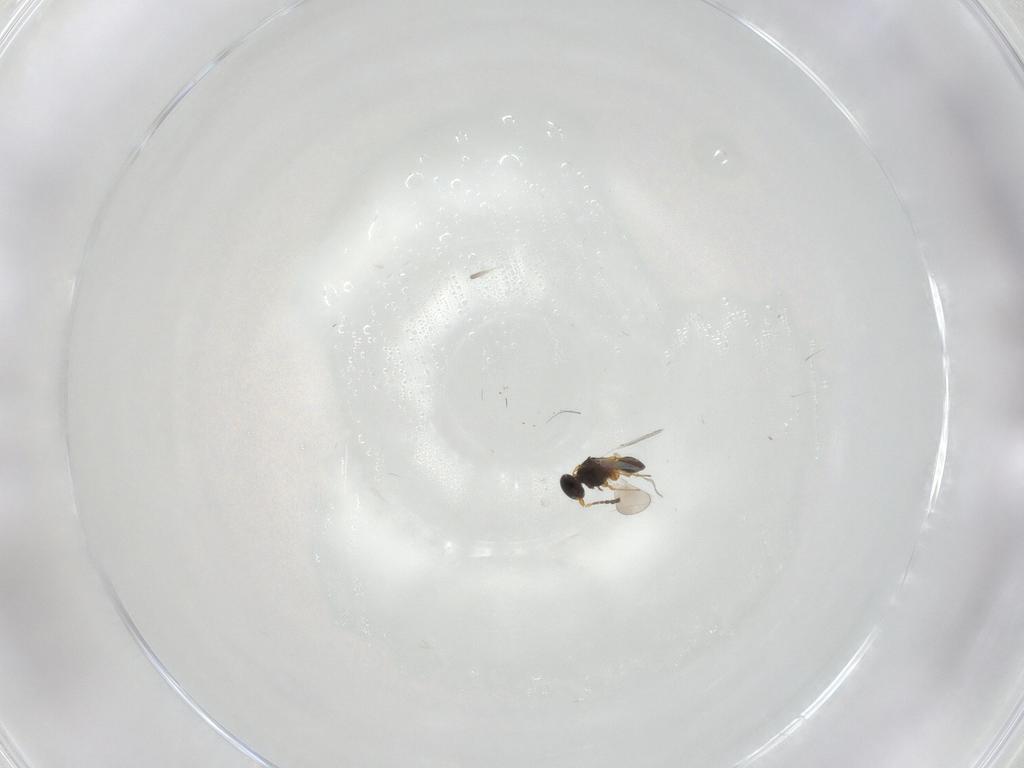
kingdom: Animalia
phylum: Arthropoda
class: Insecta
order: Hymenoptera
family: Platygastridae
